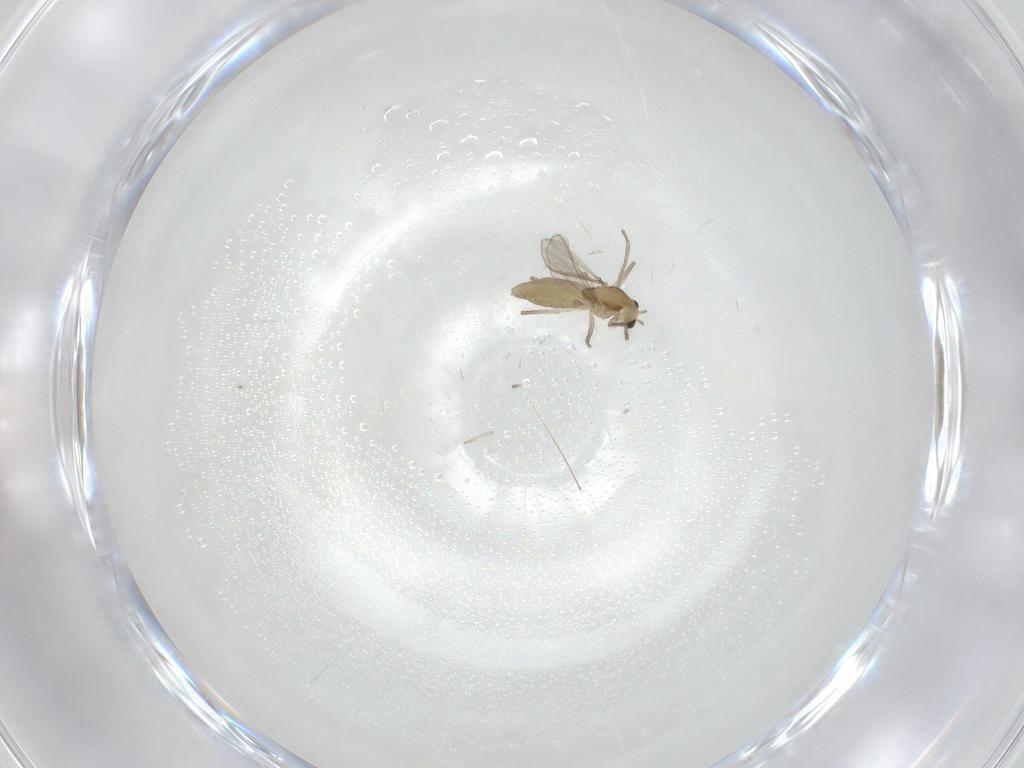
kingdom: Animalia
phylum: Arthropoda
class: Insecta
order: Diptera
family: Chironomidae
